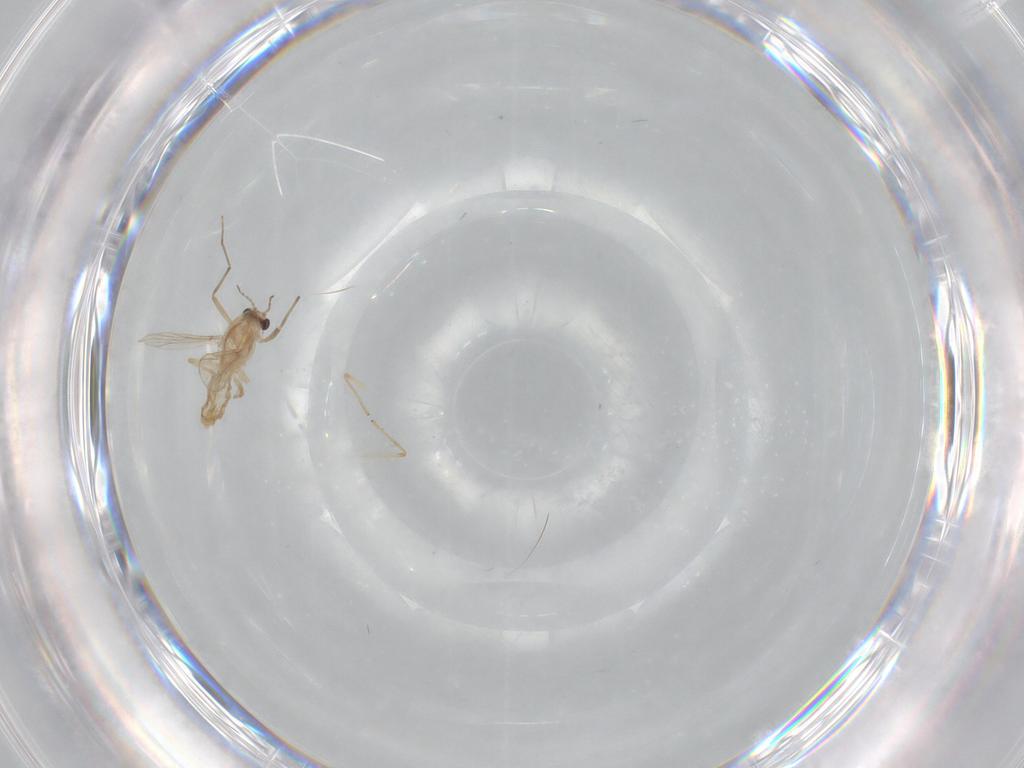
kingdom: Animalia
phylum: Arthropoda
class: Insecta
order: Diptera
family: Chironomidae
